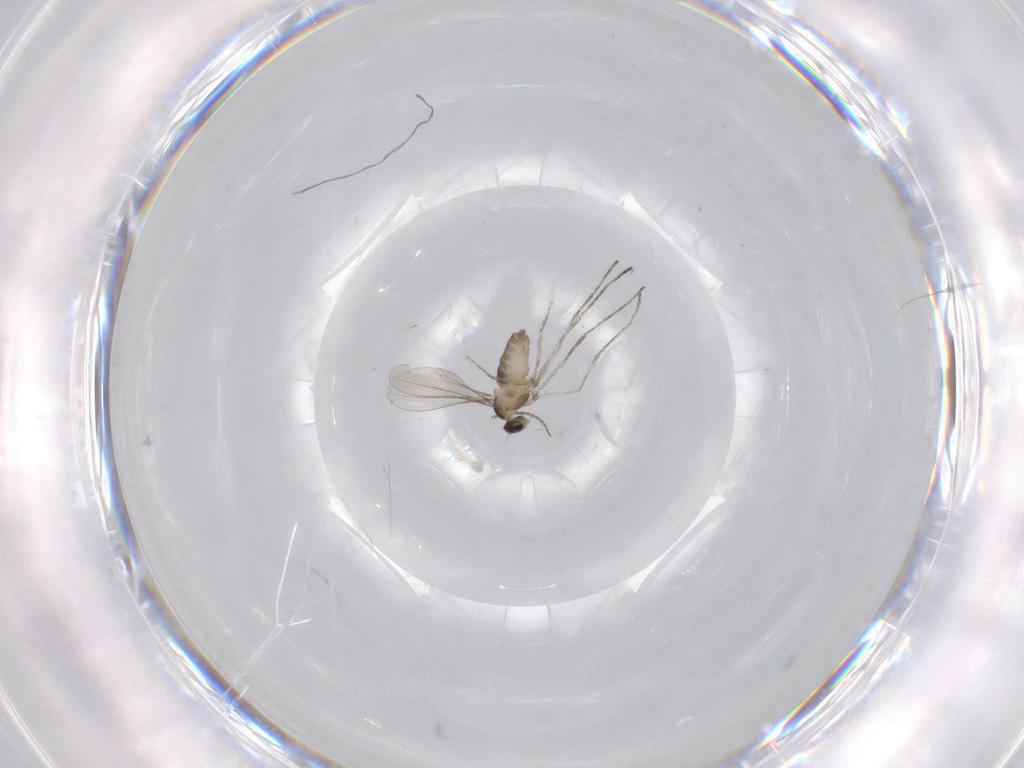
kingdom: Animalia
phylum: Arthropoda
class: Insecta
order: Diptera
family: Cecidomyiidae
